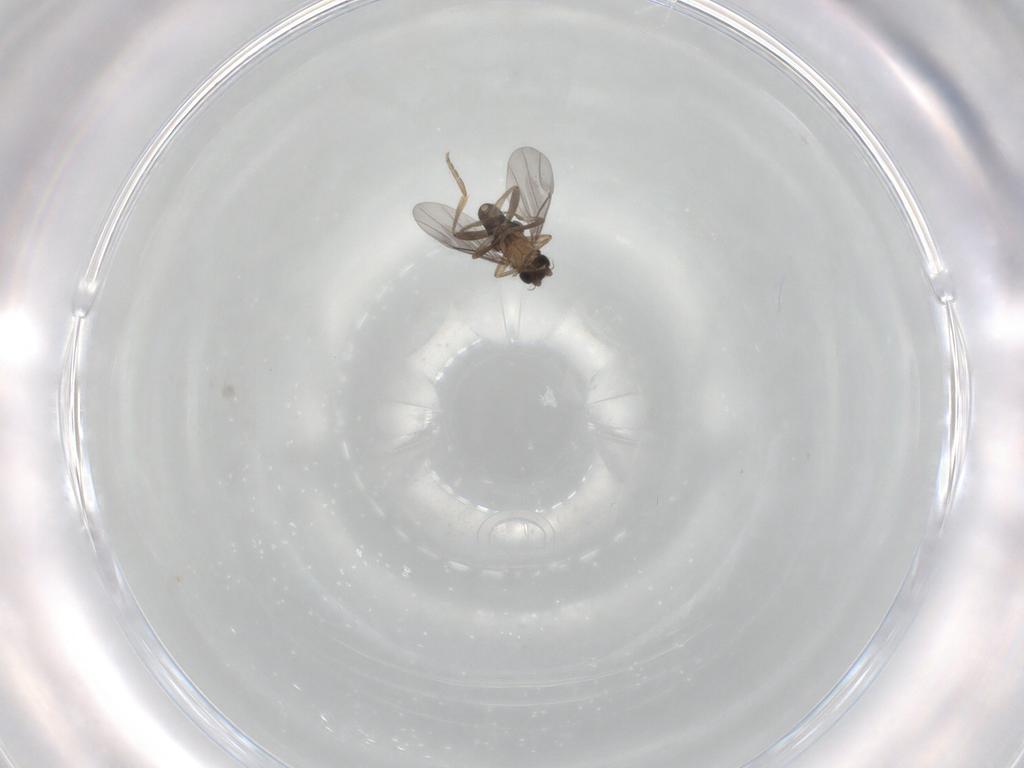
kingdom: Animalia
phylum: Arthropoda
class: Insecta
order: Diptera
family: Phoridae
